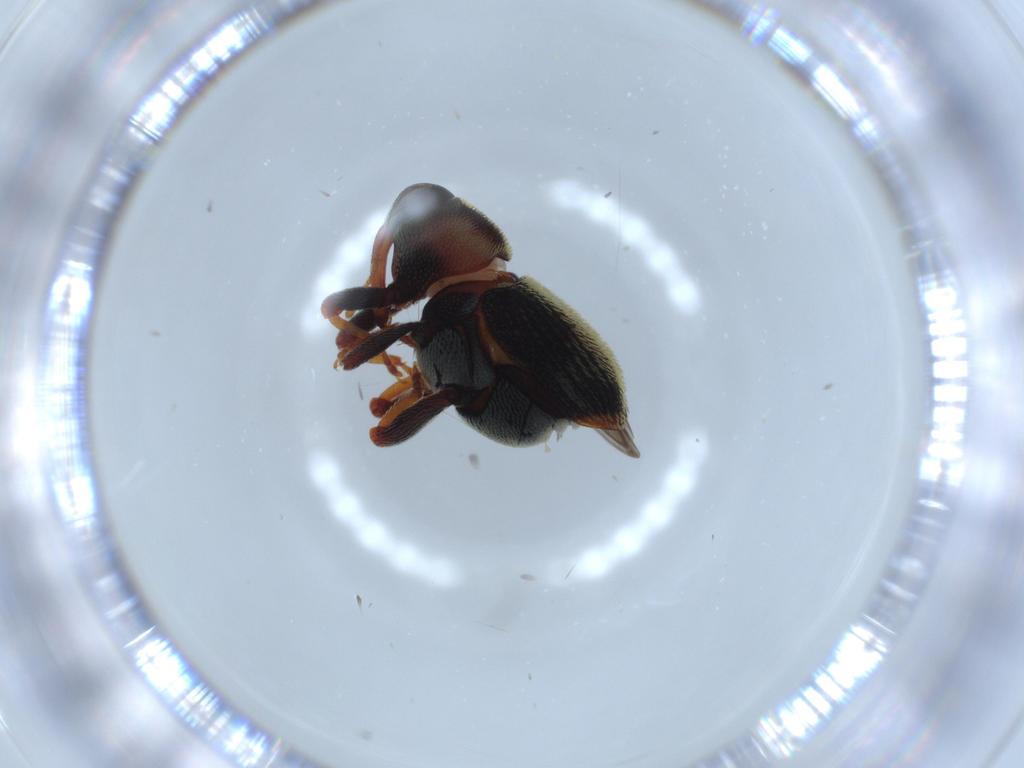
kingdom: Animalia
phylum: Arthropoda
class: Insecta
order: Coleoptera
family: Curculionidae
